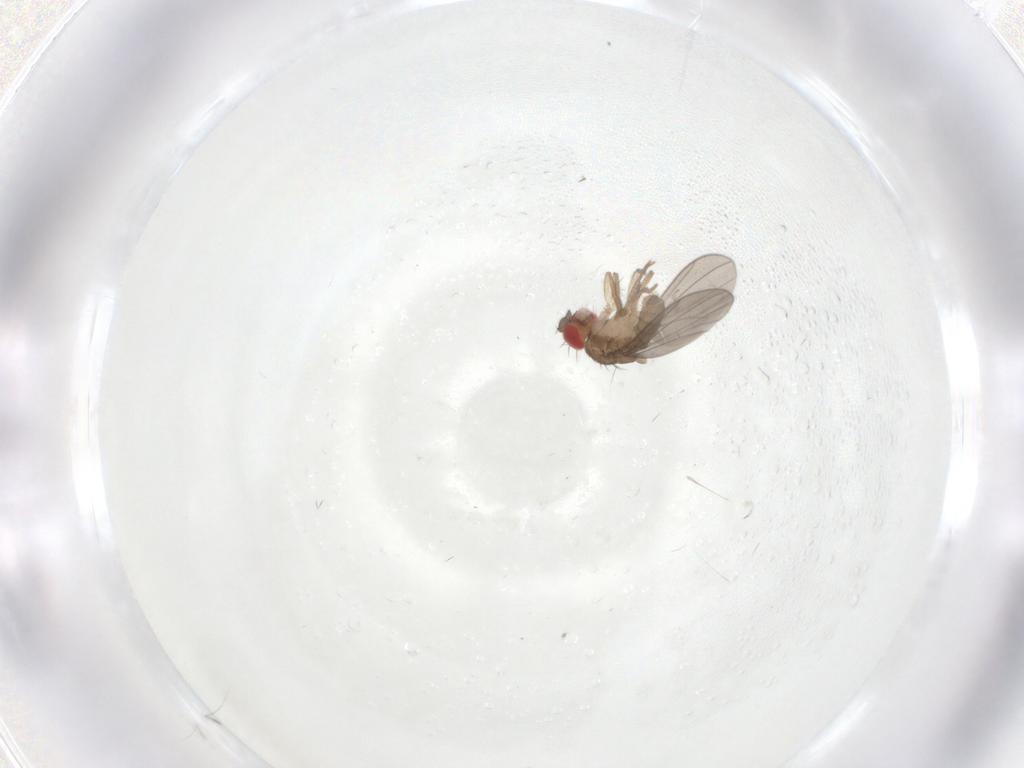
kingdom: Animalia
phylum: Arthropoda
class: Insecta
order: Diptera
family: Drosophilidae
